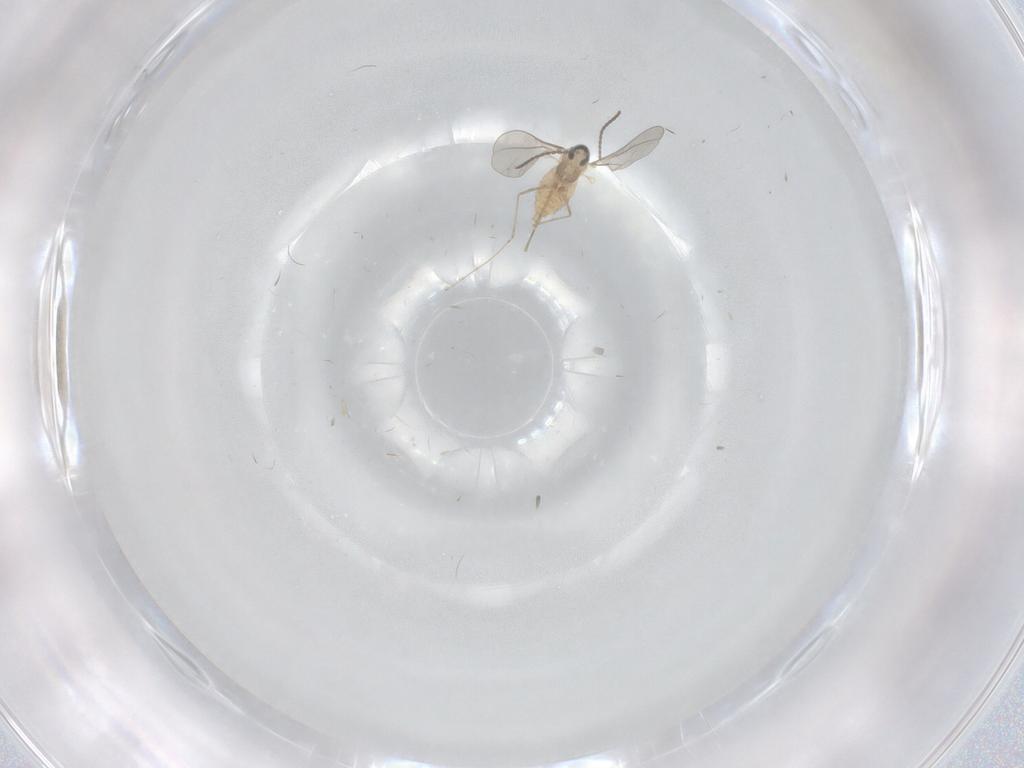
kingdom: Animalia
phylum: Arthropoda
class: Insecta
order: Diptera
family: Cecidomyiidae
